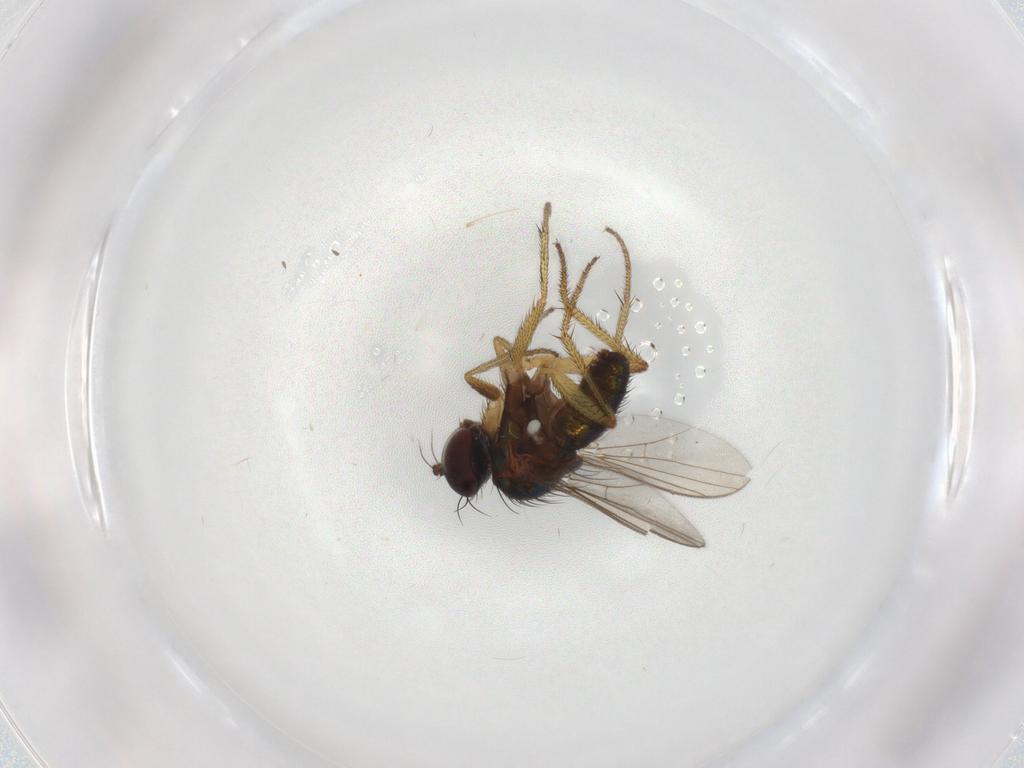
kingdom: Animalia
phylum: Arthropoda
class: Insecta
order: Diptera
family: Dolichopodidae
